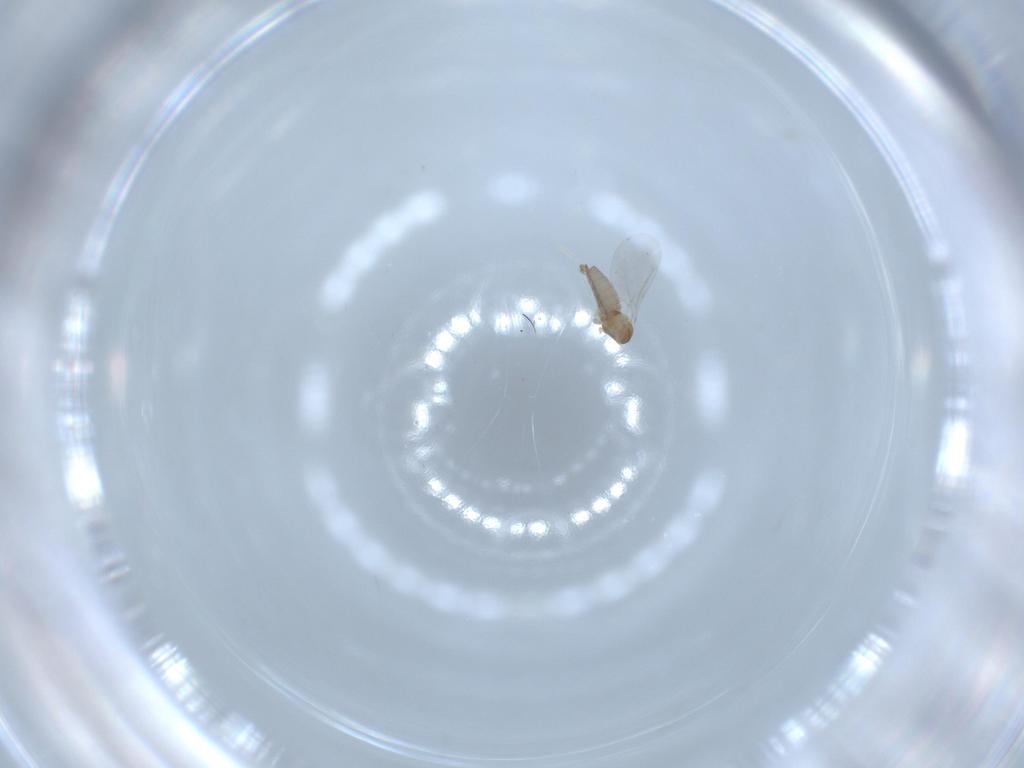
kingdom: Animalia
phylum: Arthropoda
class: Insecta
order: Diptera
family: Cecidomyiidae
